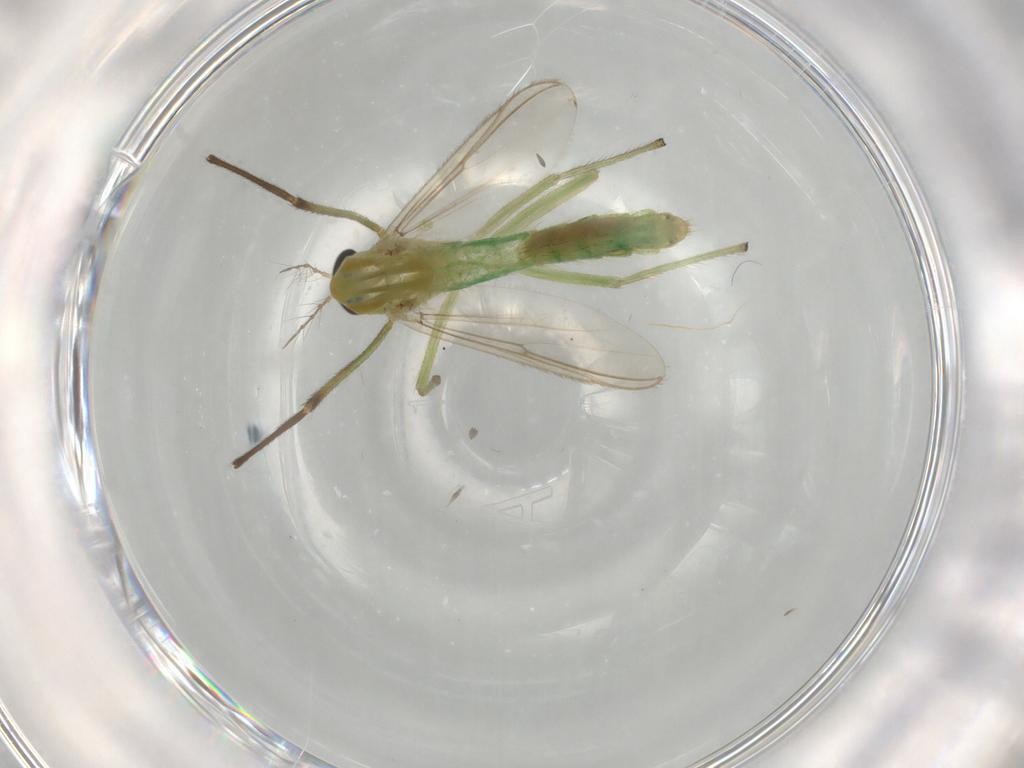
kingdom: Animalia
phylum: Arthropoda
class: Insecta
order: Diptera
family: Chironomidae
